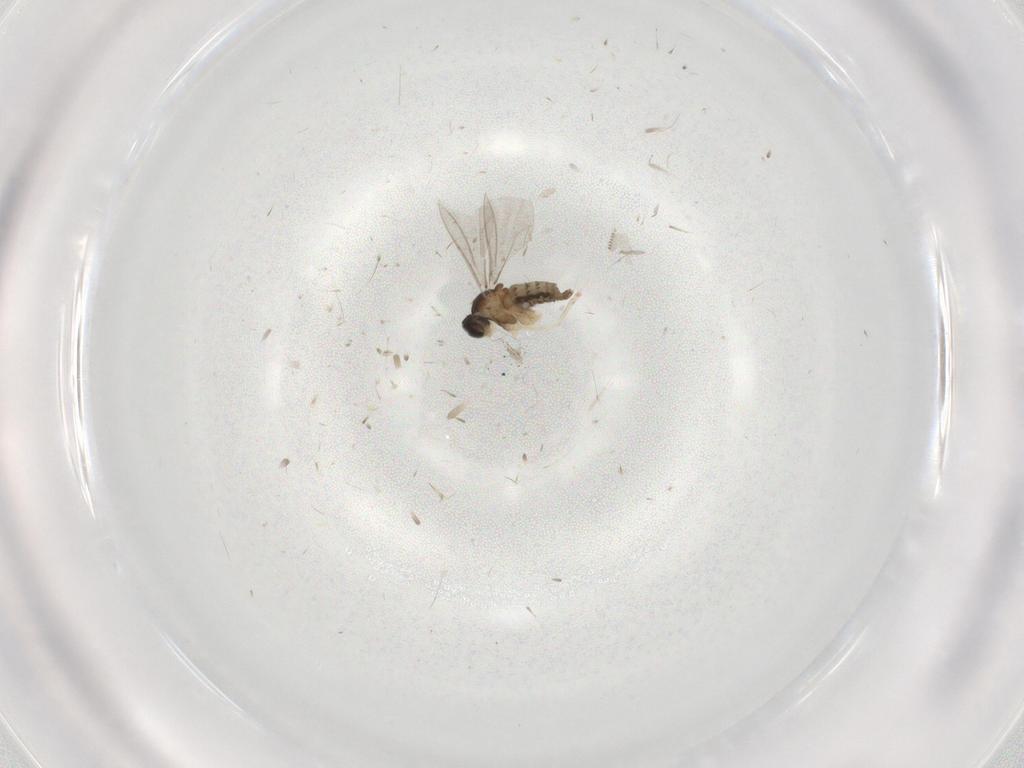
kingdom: Animalia
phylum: Arthropoda
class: Insecta
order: Diptera
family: Cecidomyiidae
